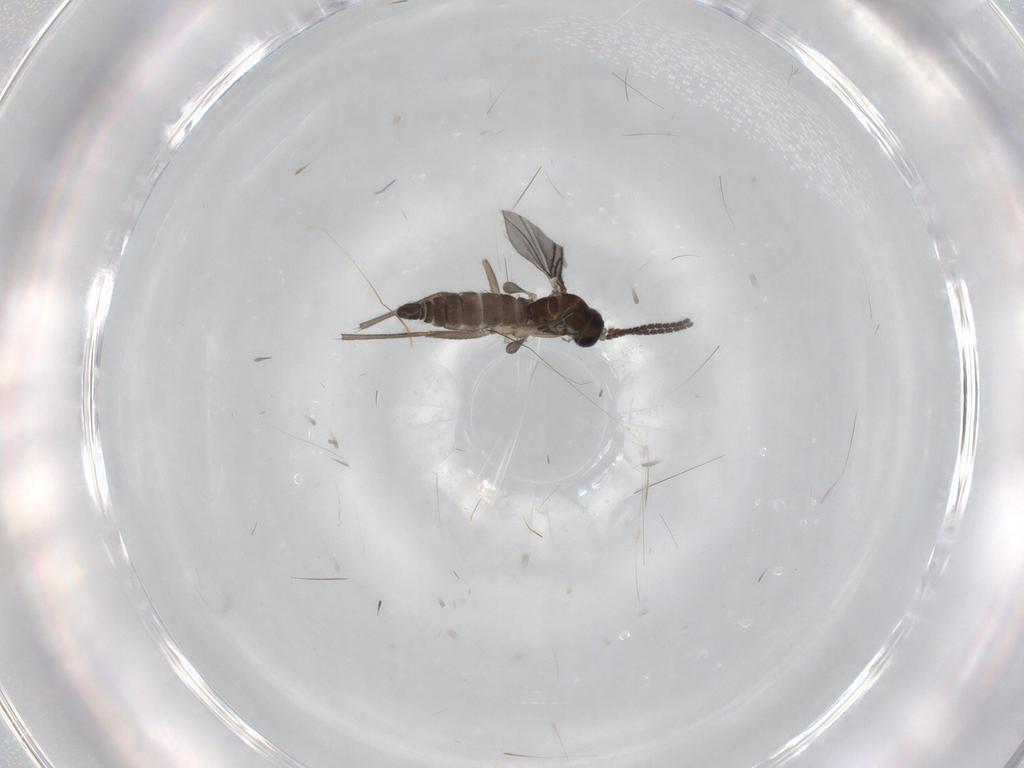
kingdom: Animalia
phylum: Arthropoda
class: Insecta
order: Diptera
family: Sciaridae
